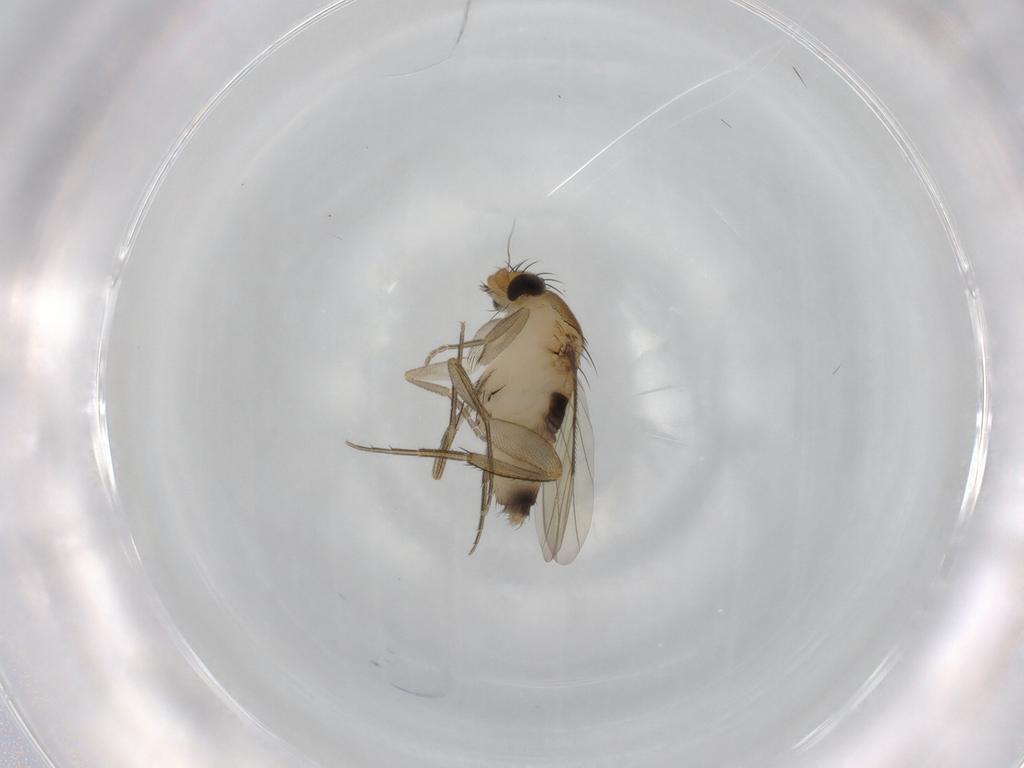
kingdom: Animalia
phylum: Arthropoda
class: Insecta
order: Diptera
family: Phoridae
